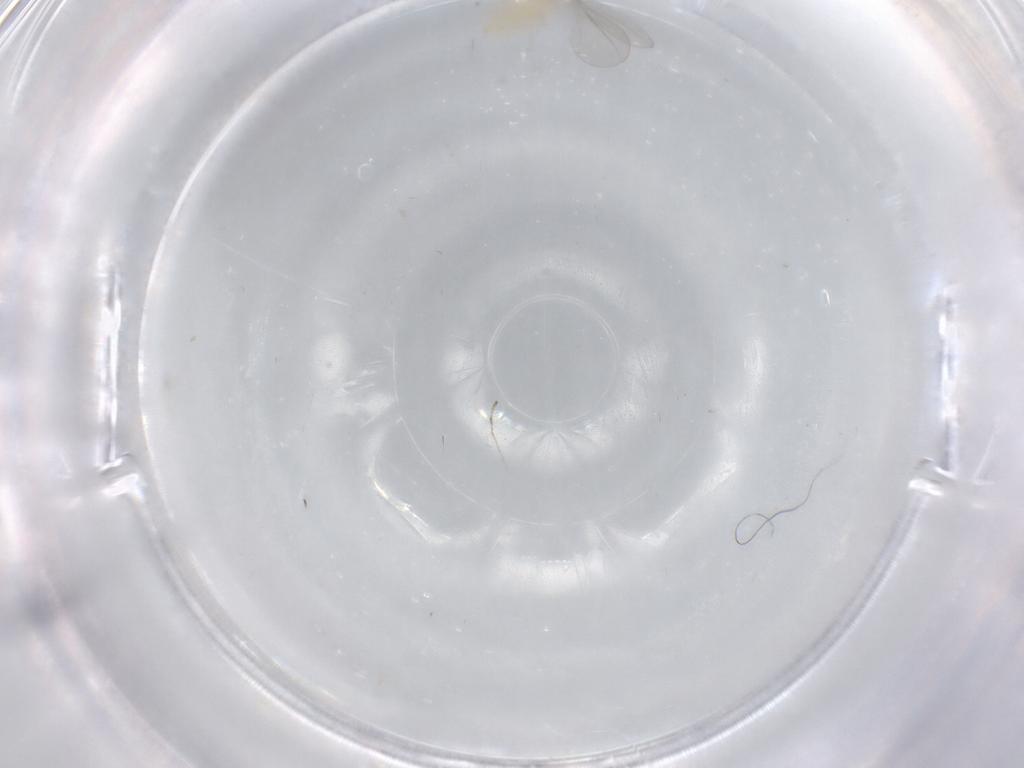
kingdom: Animalia
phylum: Arthropoda
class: Insecta
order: Diptera
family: Cecidomyiidae
